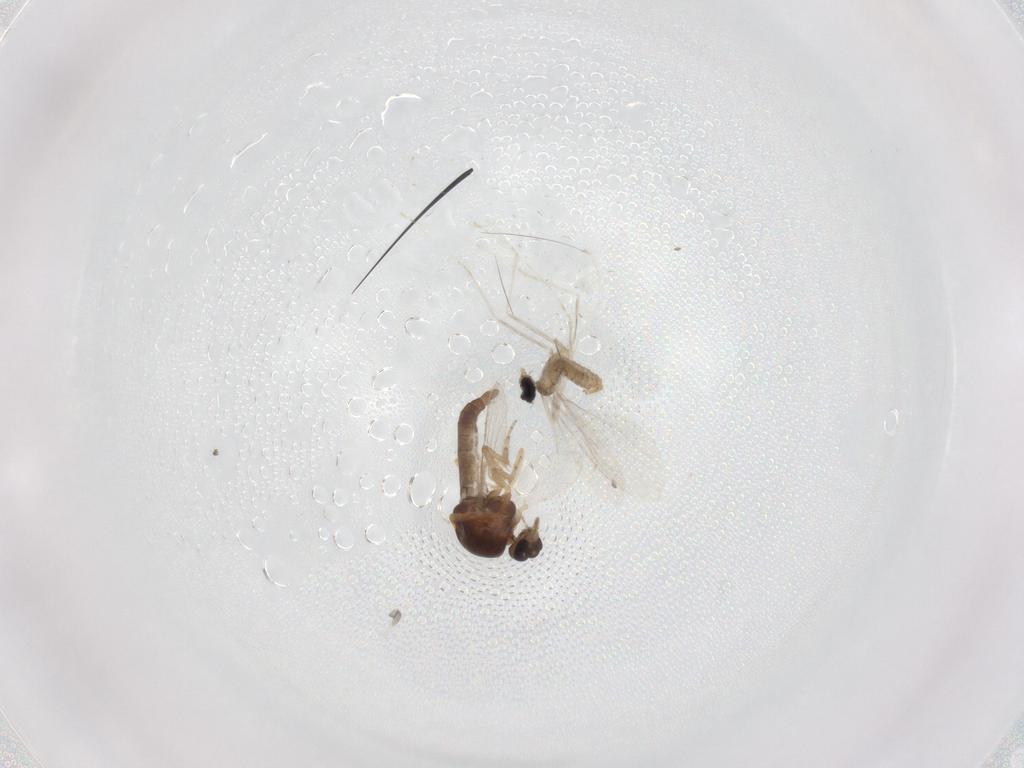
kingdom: Animalia
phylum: Arthropoda
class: Insecta
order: Diptera
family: Ceratopogonidae
